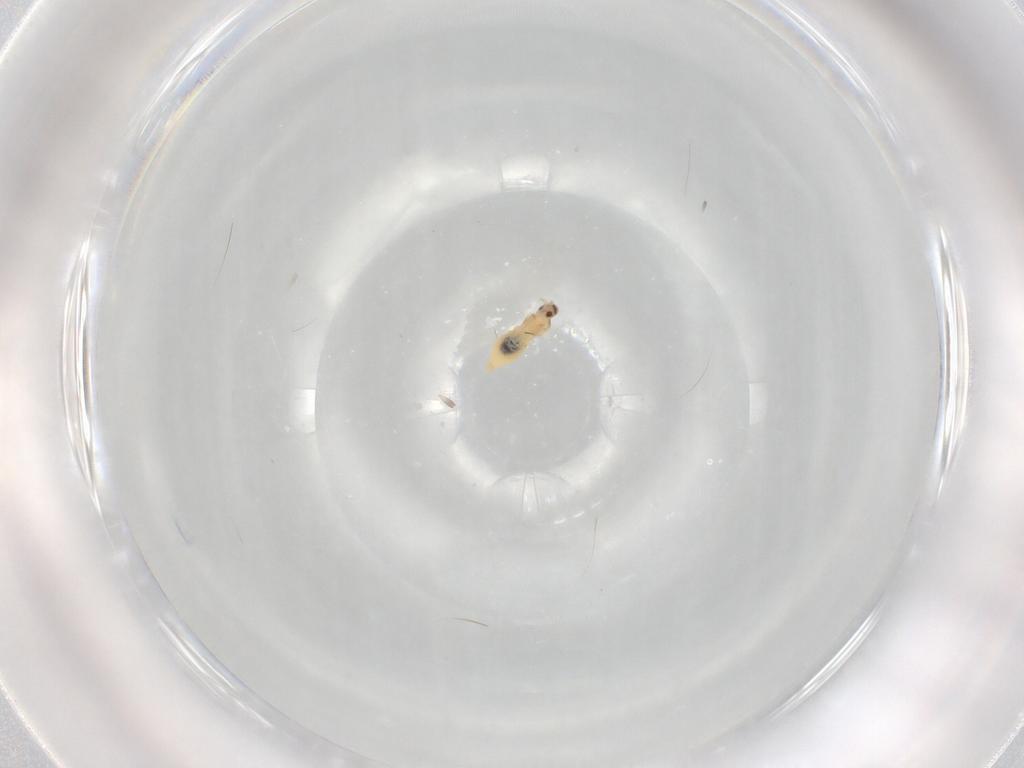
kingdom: Animalia
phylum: Arthropoda
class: Insecta
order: Diptera
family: Cecidomyiidae
